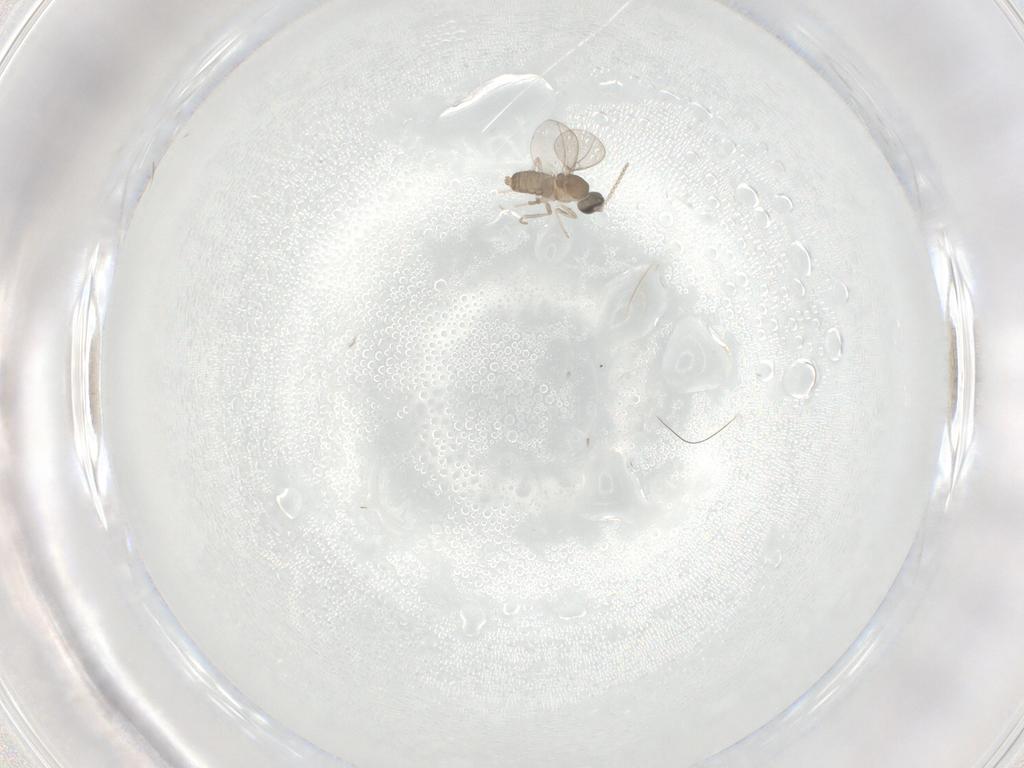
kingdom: Animalia
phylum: Arthropoda
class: Insecta
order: Diptera
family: Cecidomyiidae
